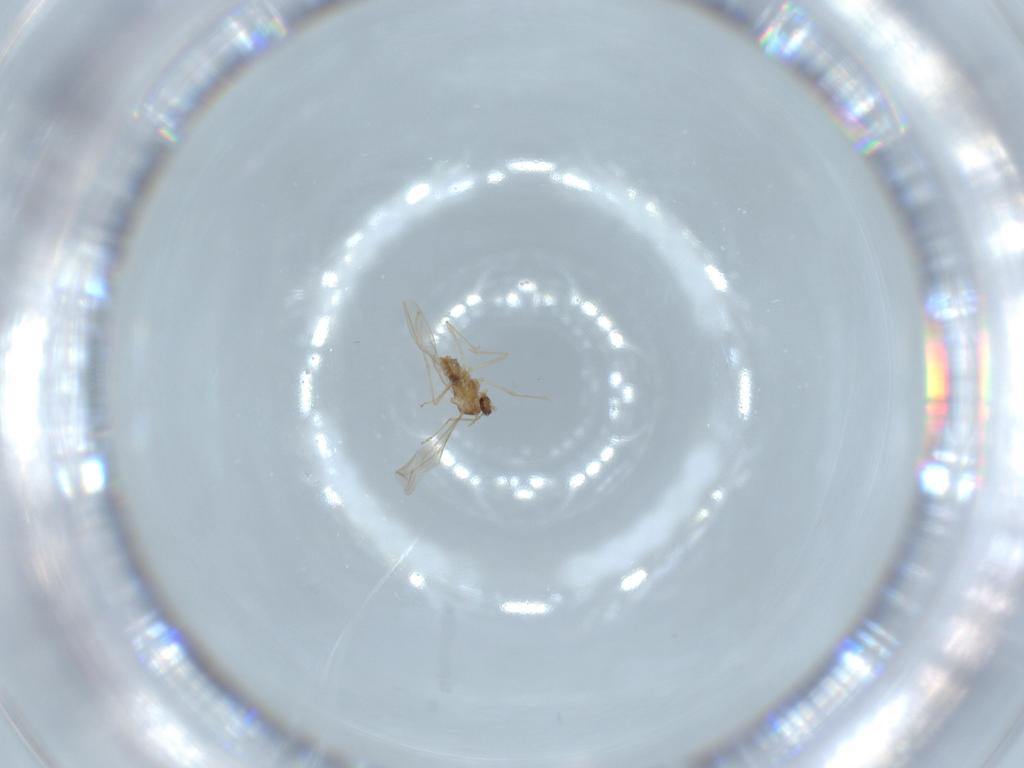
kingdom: Animalia
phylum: Arthropoda
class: Insecta
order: Diptera
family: Cecidomyiidae
